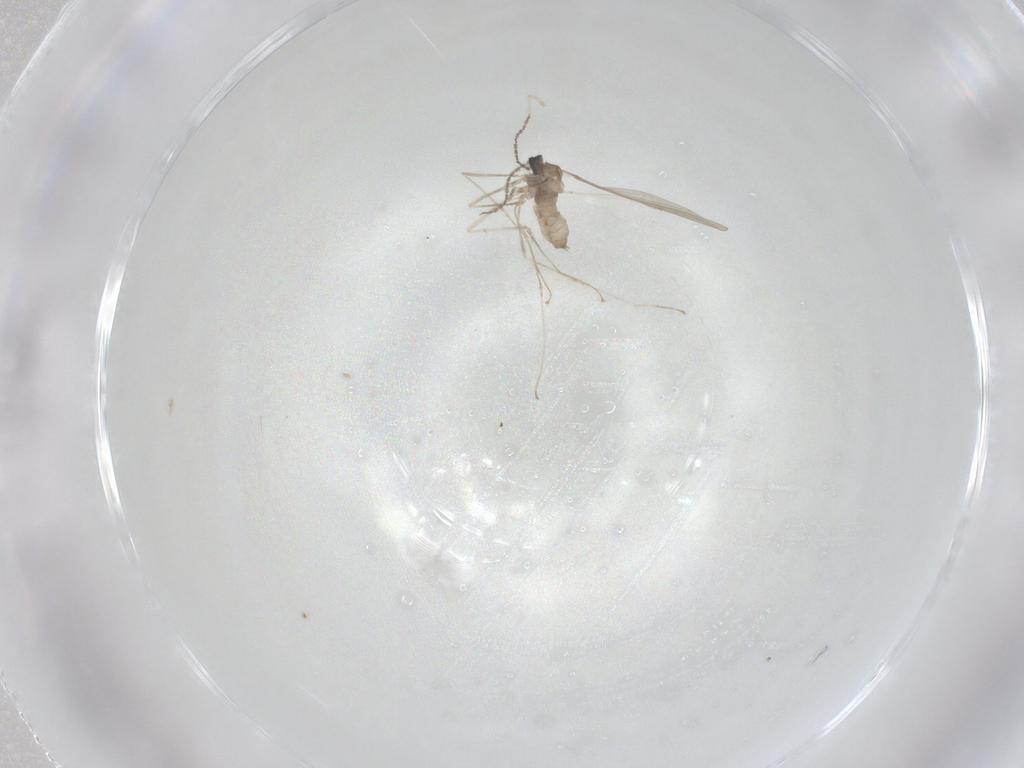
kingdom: Animalia
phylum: Arthropoda
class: Insecta
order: Diptera
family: Cecidomyiidae
